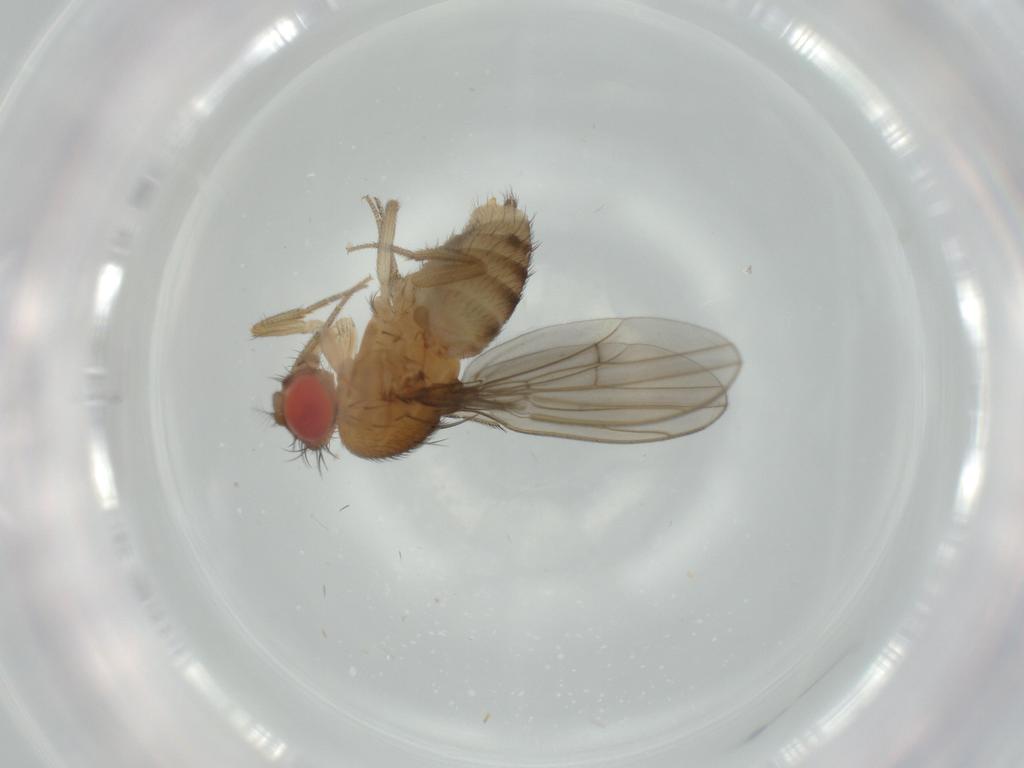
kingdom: Animalia
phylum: Arthropoda
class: Insecta
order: Diptera
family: Drosophilidae
